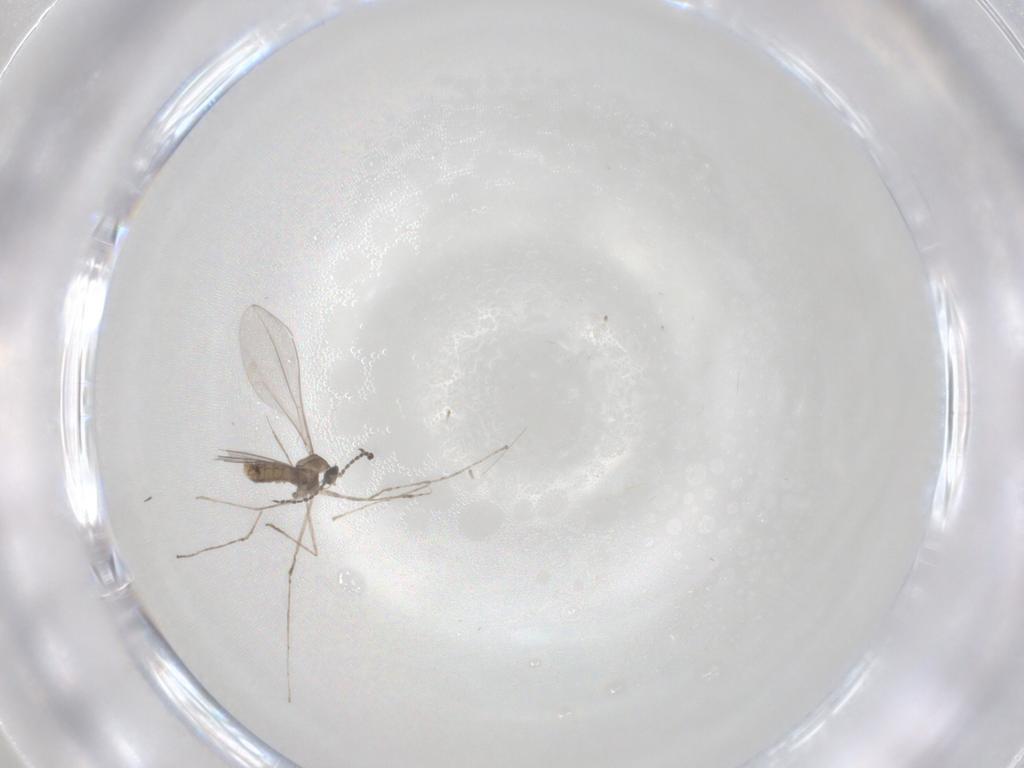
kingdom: Animalia
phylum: Arthropoda
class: Insecta
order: Diptera
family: Cecidomyiidae
